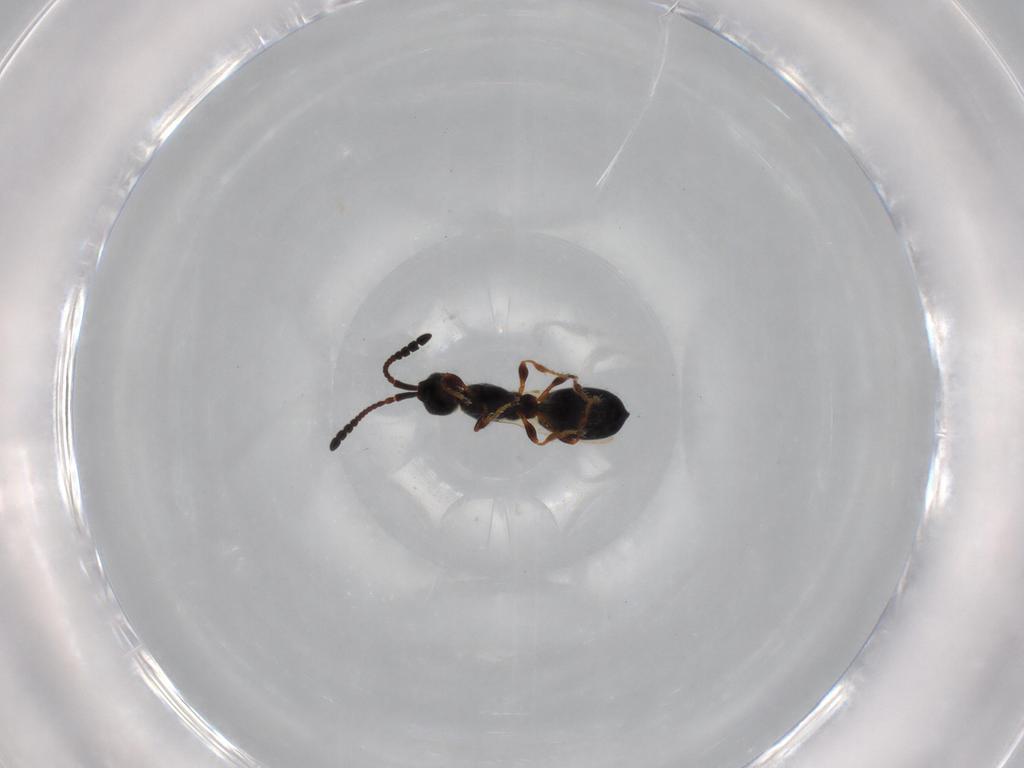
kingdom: Animalia
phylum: Arthropoda
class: Insecta
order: Hymenoptera
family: Diapriidae
